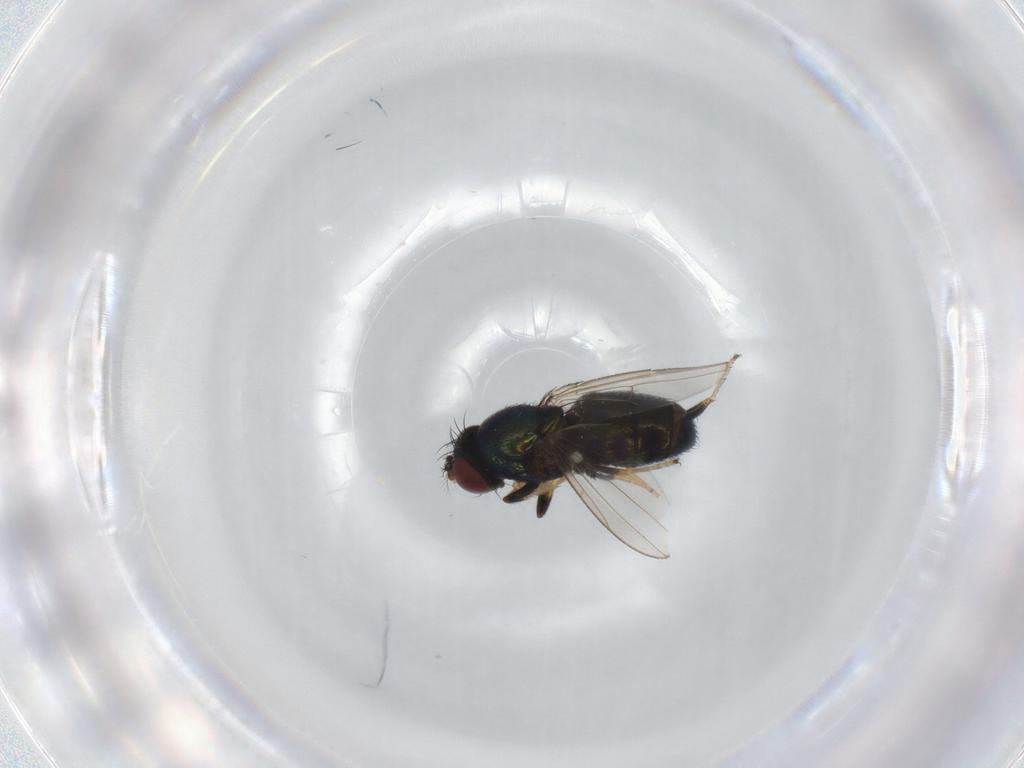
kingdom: Animalia
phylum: Arthropoda
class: Insecta
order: Diptera
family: Ephydridae
